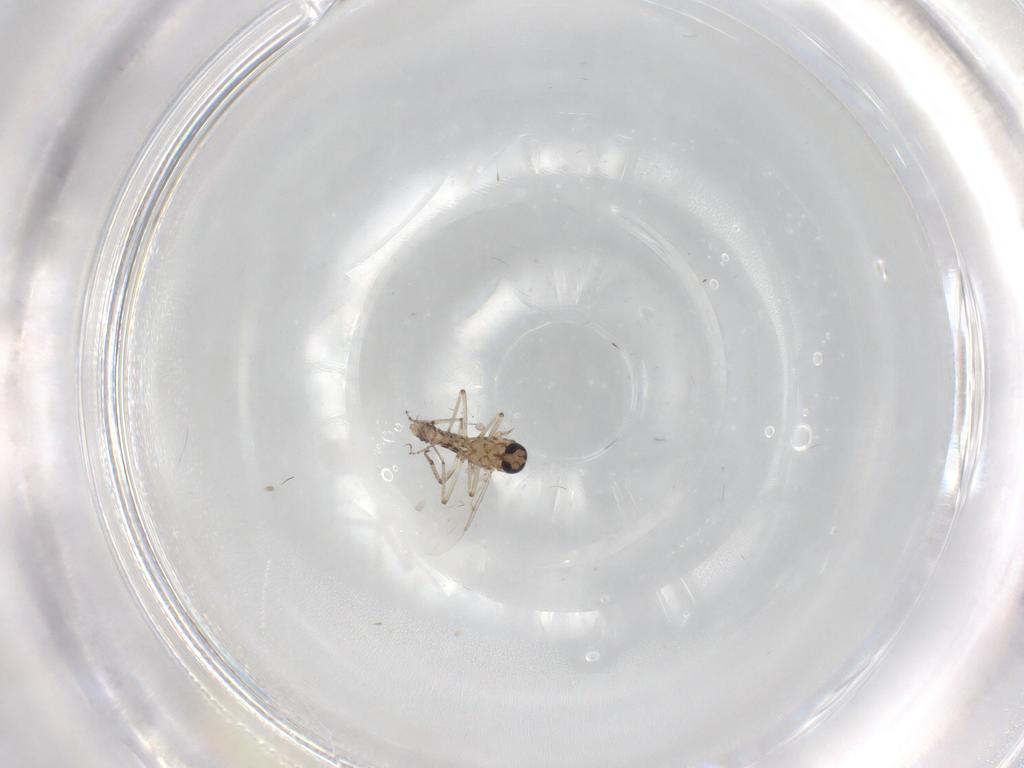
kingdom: Animalia
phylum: Arthropoda
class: Insecta
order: Diptera
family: Ceratopogonidae
